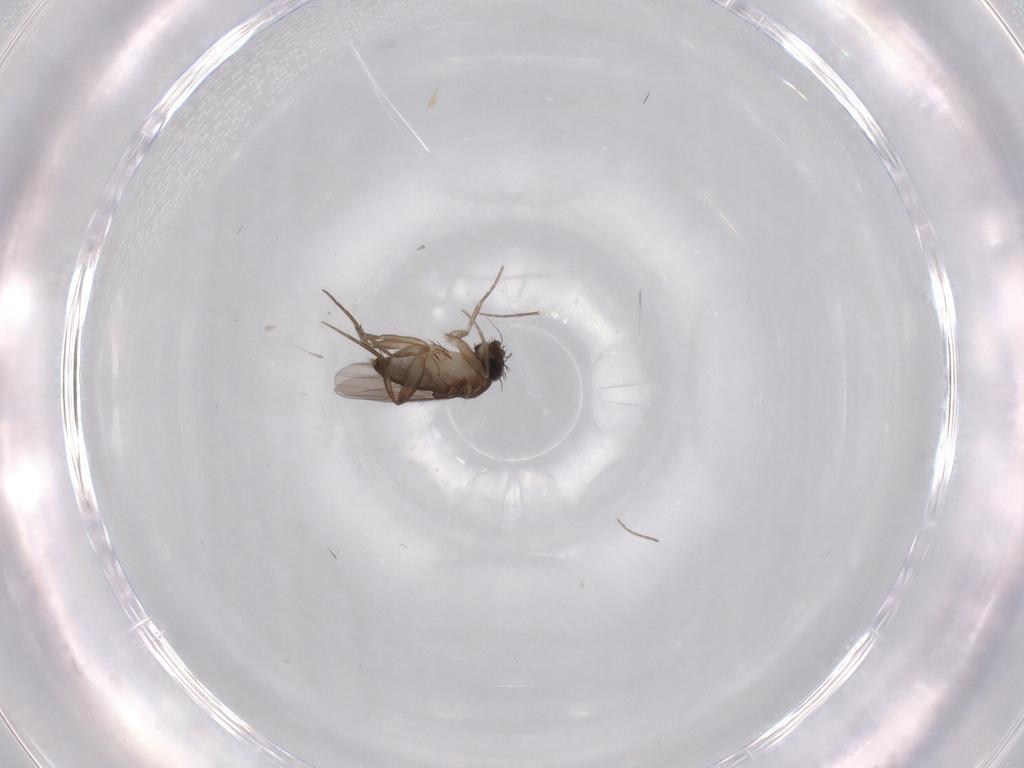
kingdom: Animalia
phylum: Arthropoda
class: Insecta
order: Diptera
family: Phoridae
